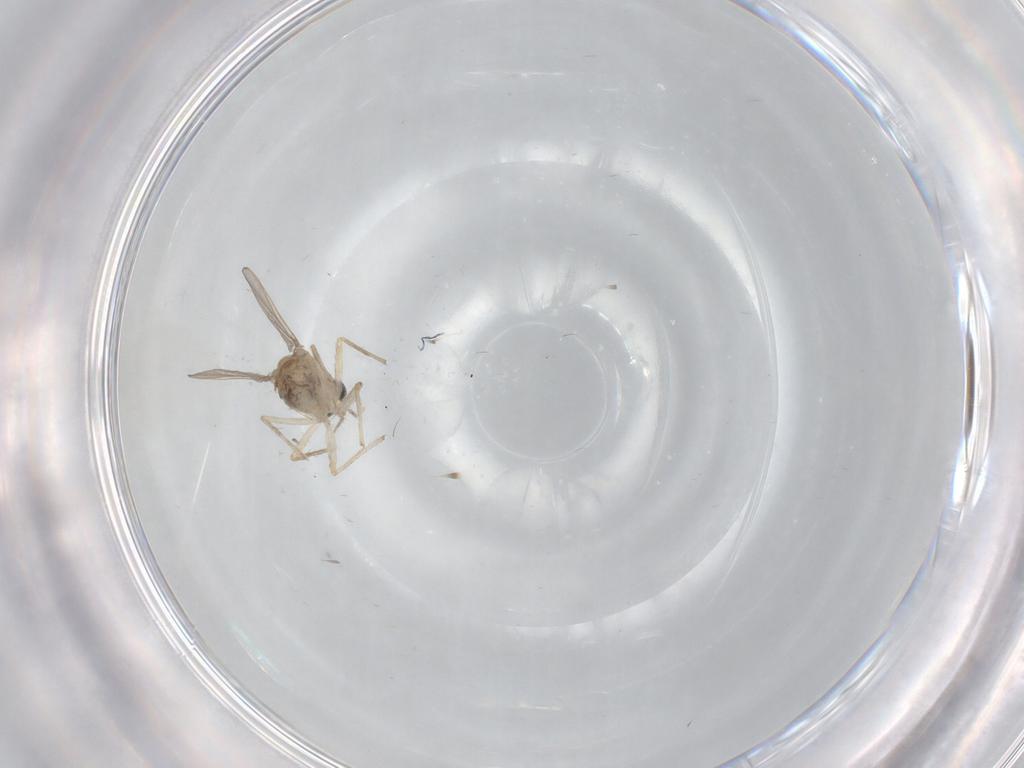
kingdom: Animalia
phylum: Arthropoda
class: Insecta
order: Diptera
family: Chironomidae
